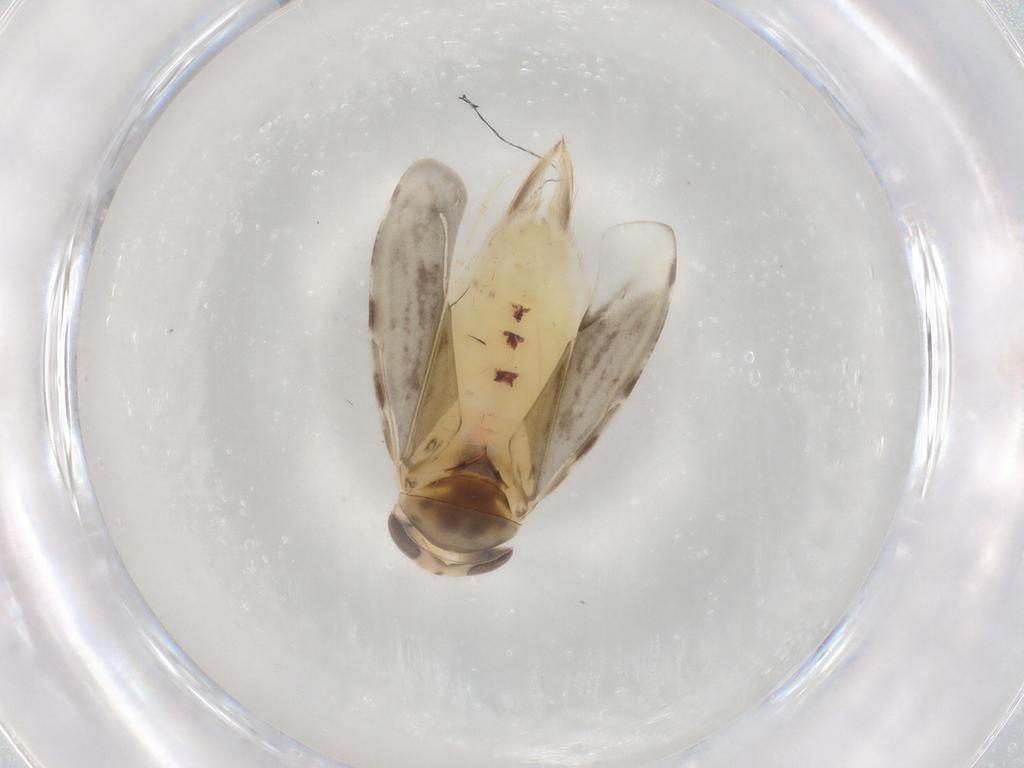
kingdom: Animalia
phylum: Arthropoda
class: Insecta
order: Hemiptera
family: Corixidae
